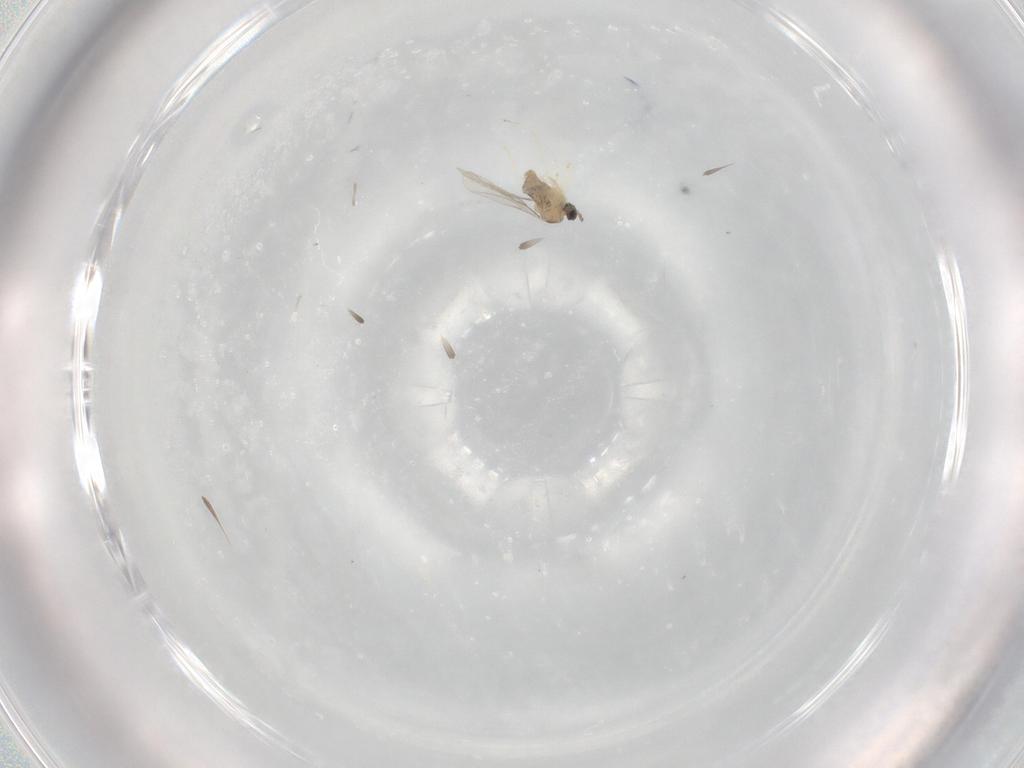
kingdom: Animalia
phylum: Arthropoda
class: Insecta
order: Diptera
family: Cecidomyiidae
